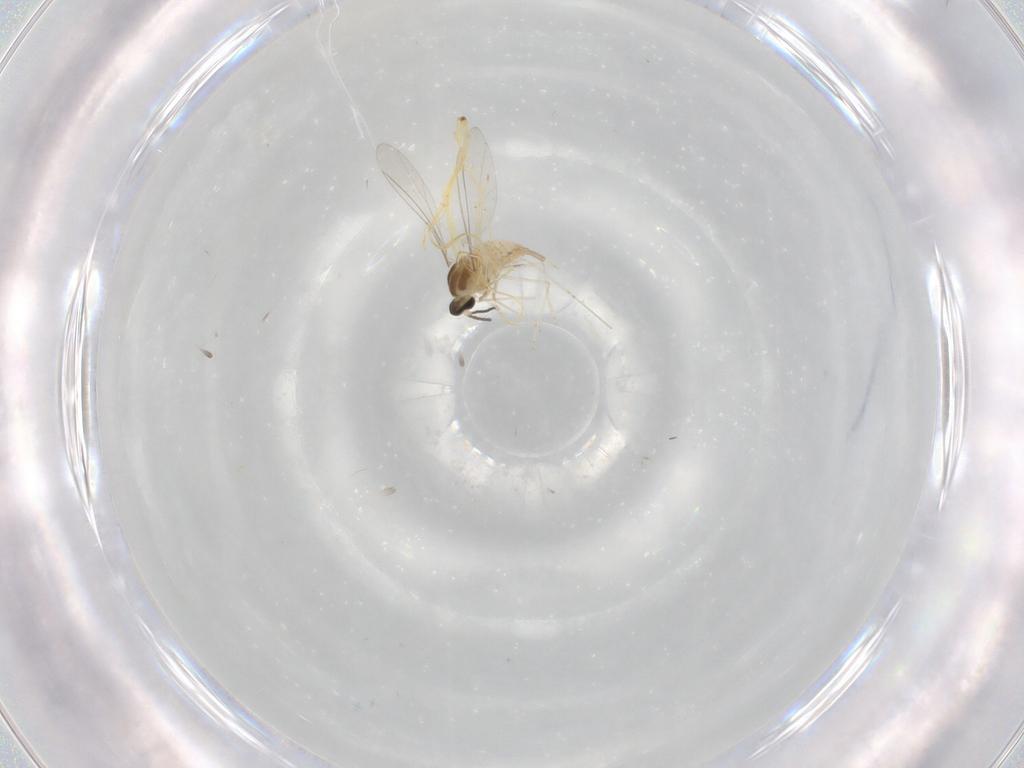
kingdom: Animalia
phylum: Arthropoda
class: Insecta
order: Diptera
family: Cecidomyiidae
